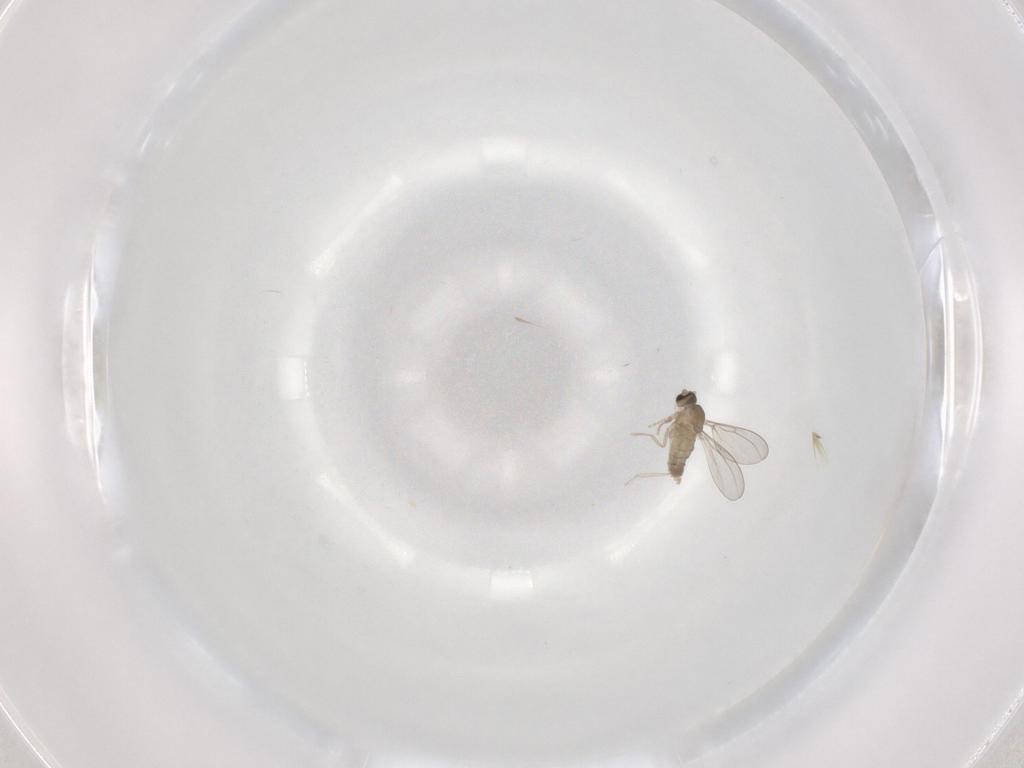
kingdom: Animalia
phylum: Arthropoda
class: Insecta
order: Diptera
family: Cecidomyiidae
